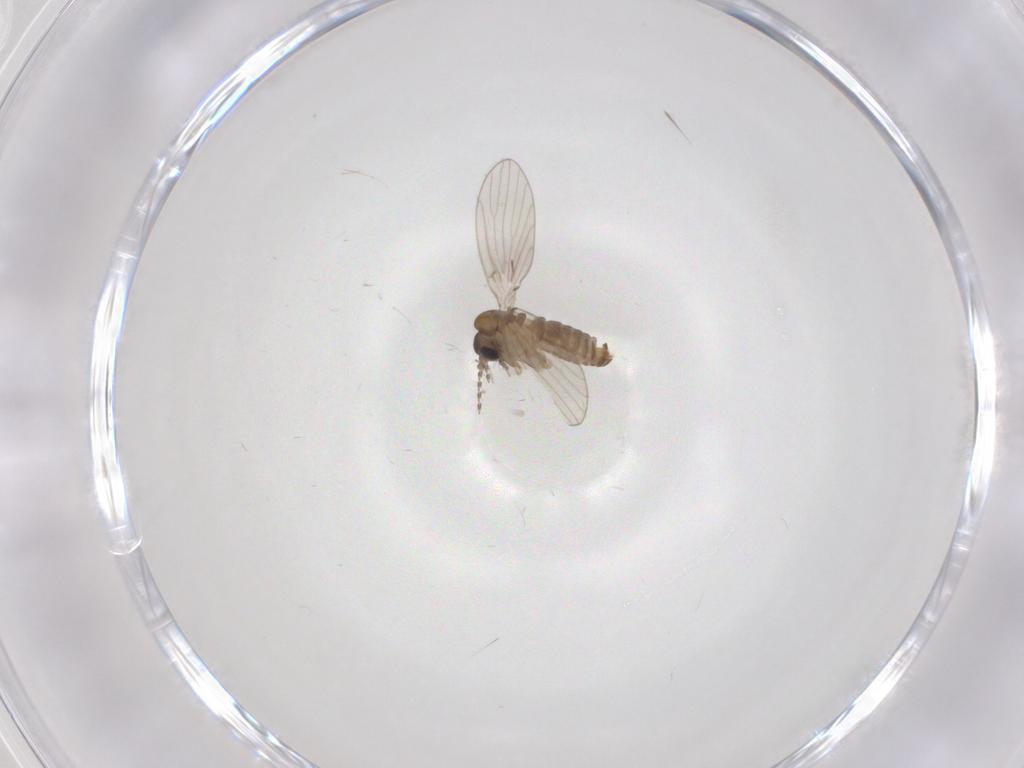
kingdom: Animalia
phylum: Arthropoda
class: Insecta
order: Diptera
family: Psychodidae
